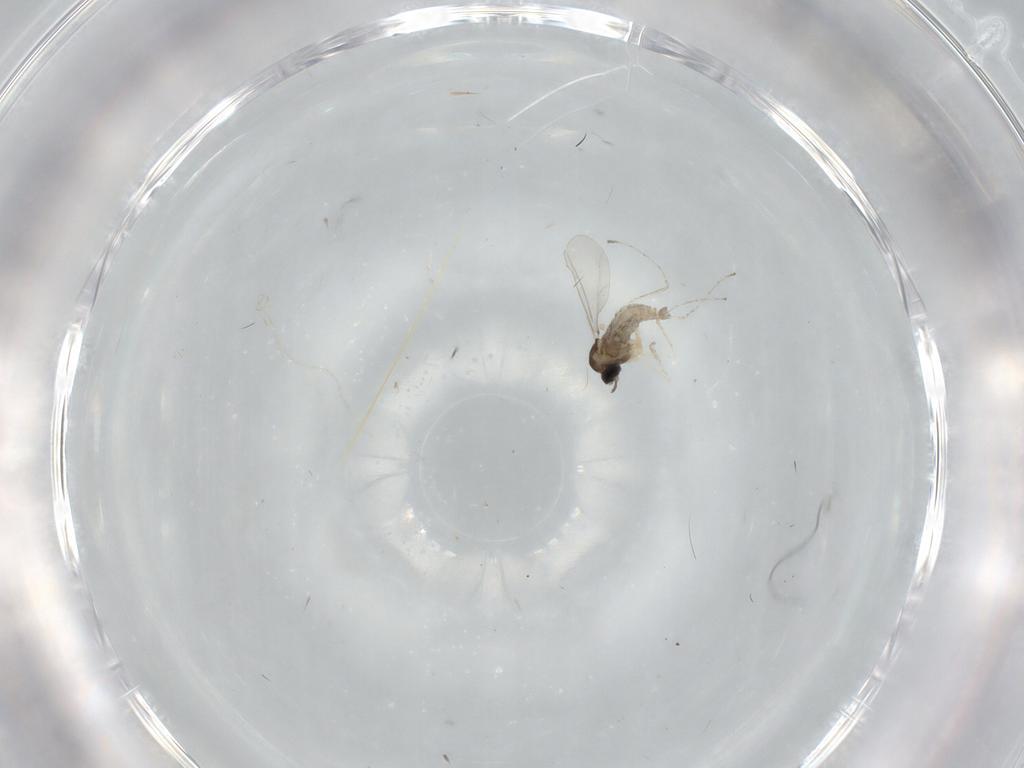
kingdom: Animalia
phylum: Arthropoda
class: Insecta
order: Diptera
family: Cecidomyiidae
